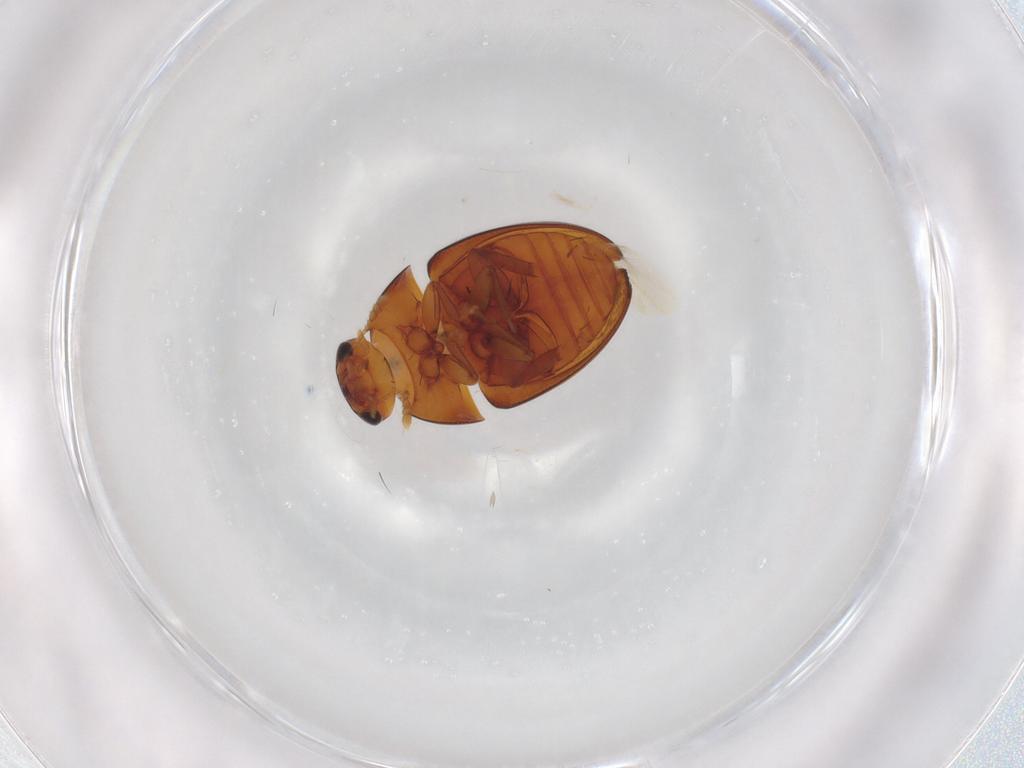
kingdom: Animalia
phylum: Arthropoda
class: Insecta
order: Coleoptera
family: Phalacridae
